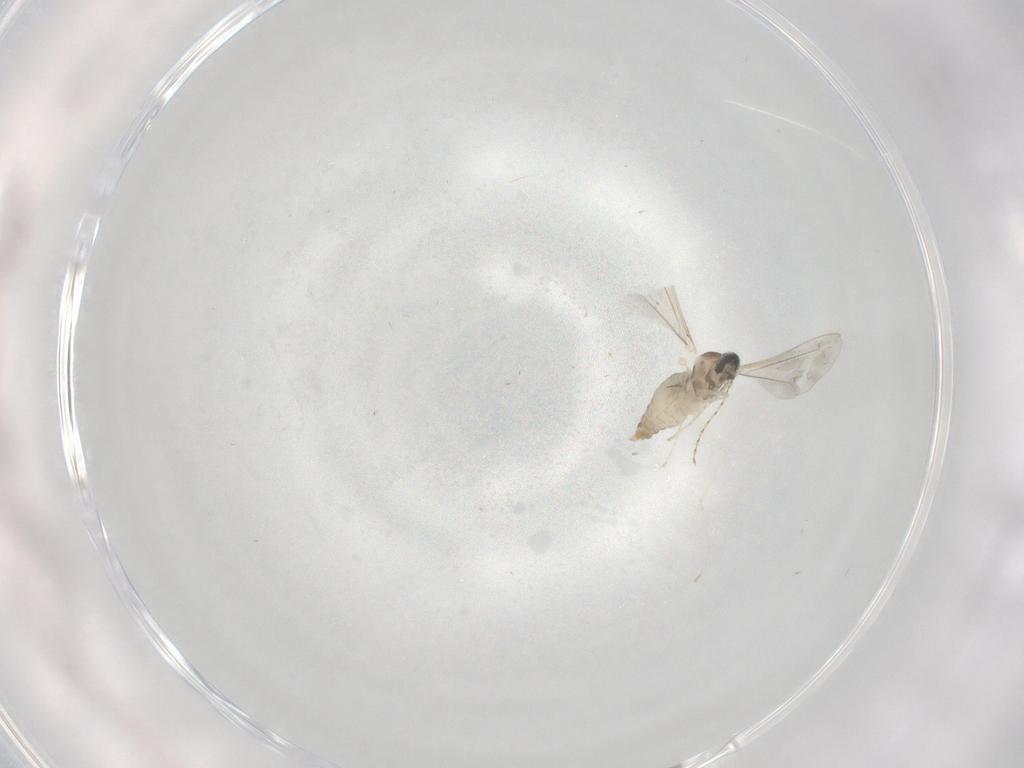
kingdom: Animalia
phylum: Arthropoda
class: Insecta
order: Diptera
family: Cecidomyiidae
